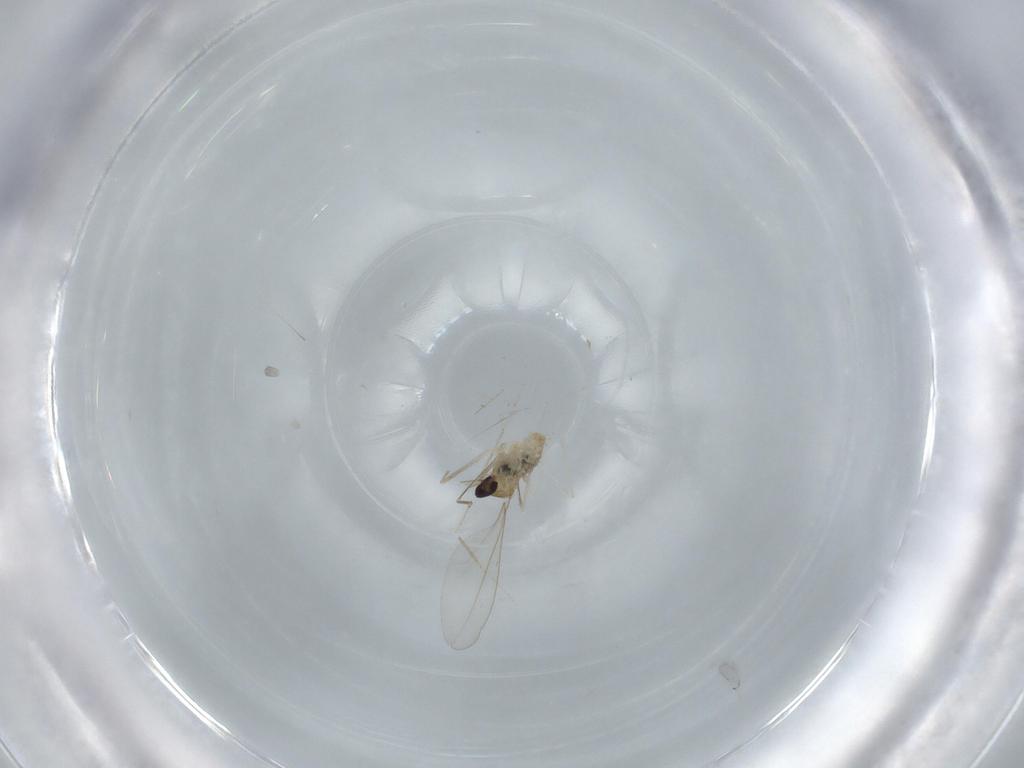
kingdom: Animalia
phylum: Arthropoda
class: Insecta
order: Diptera
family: Cecidomyiidae
